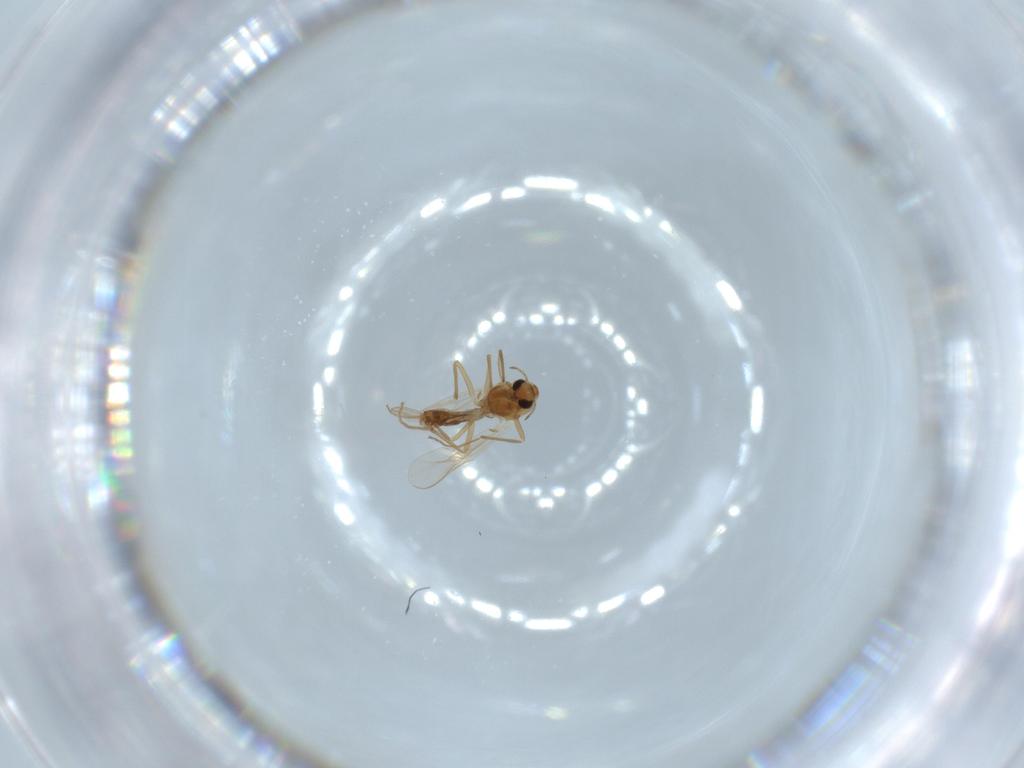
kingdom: Animalia
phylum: Arthropoda
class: Insecta
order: Diptera
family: Chironomidae
